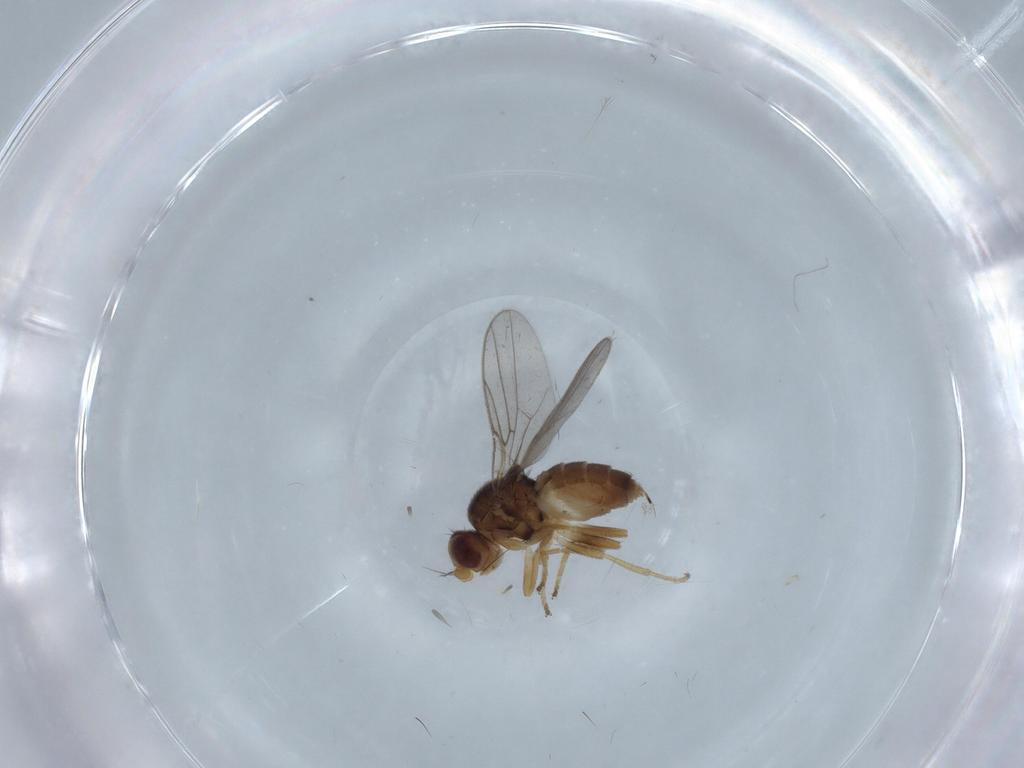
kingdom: Animalia
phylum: Arthropoda
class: Insecta
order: Diptera
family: Chloropidae
